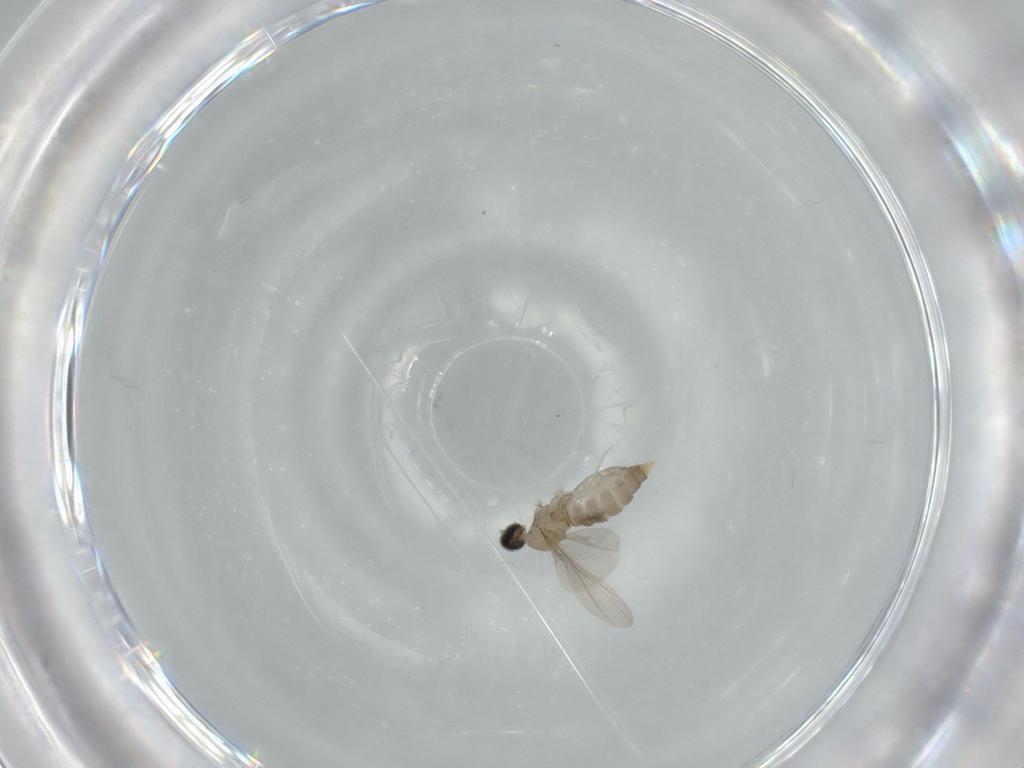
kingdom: Animalia
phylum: Arthropoda
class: Insecta
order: Diptera
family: Cecidomyiidae
